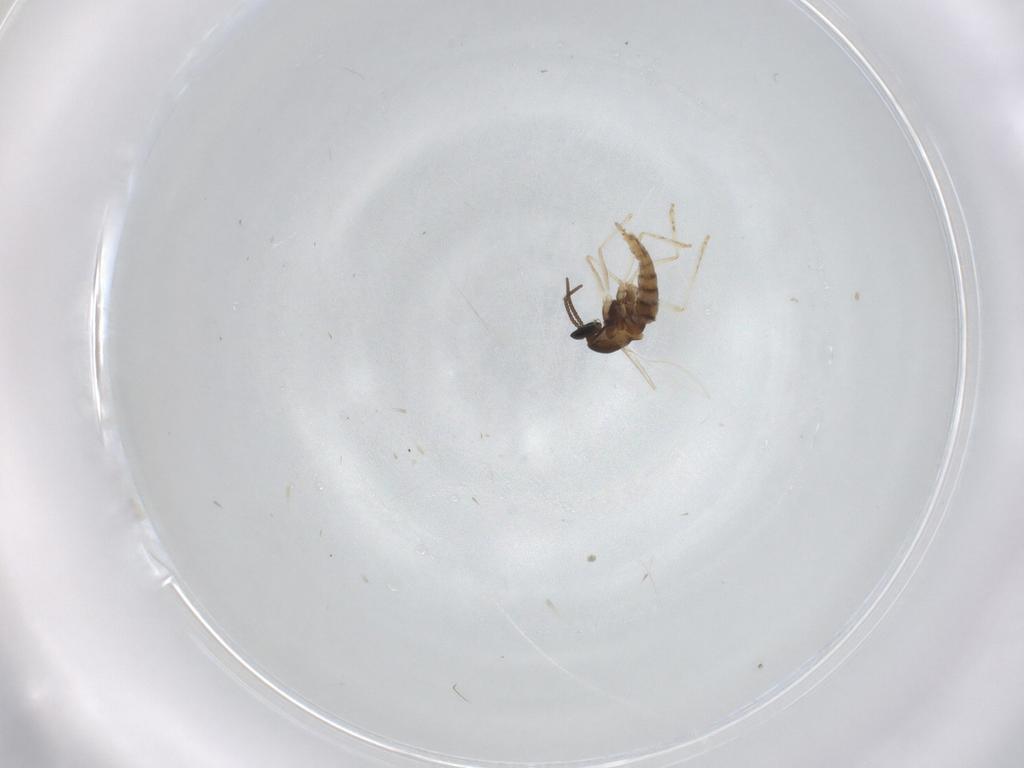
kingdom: Animalia
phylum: Arthropoda
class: Insecta
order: Diptera
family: Cecidomyiidae
